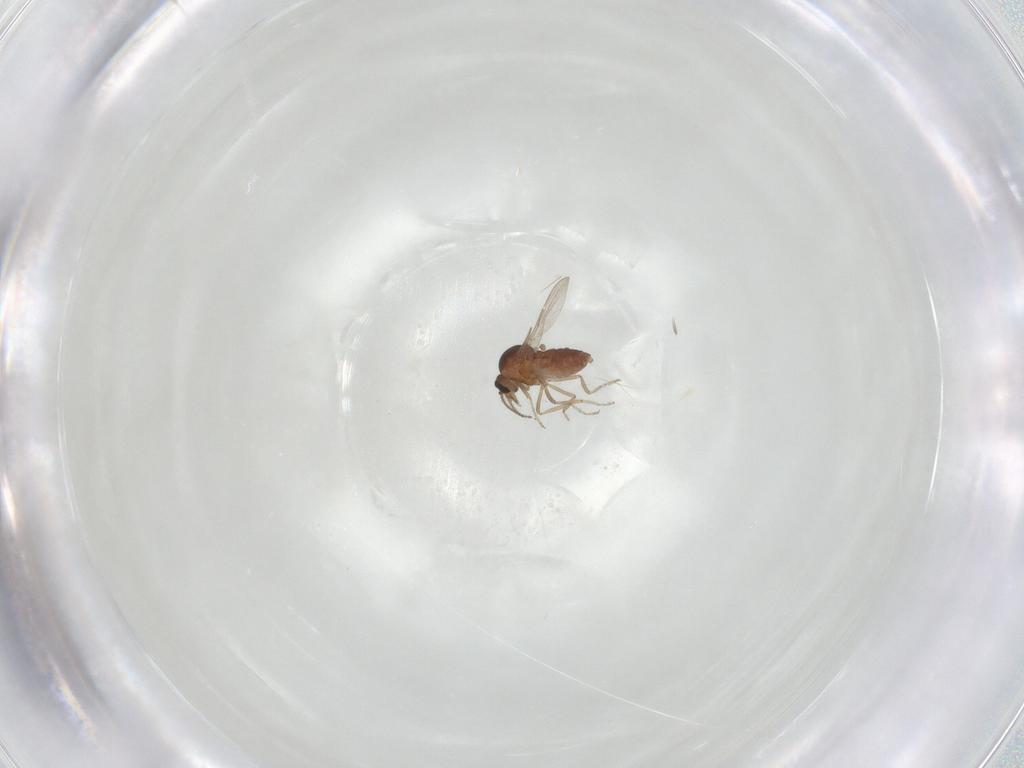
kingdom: Animalia
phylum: Arthropoda
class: Insecta
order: Diptera
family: Ceratopogonidae
